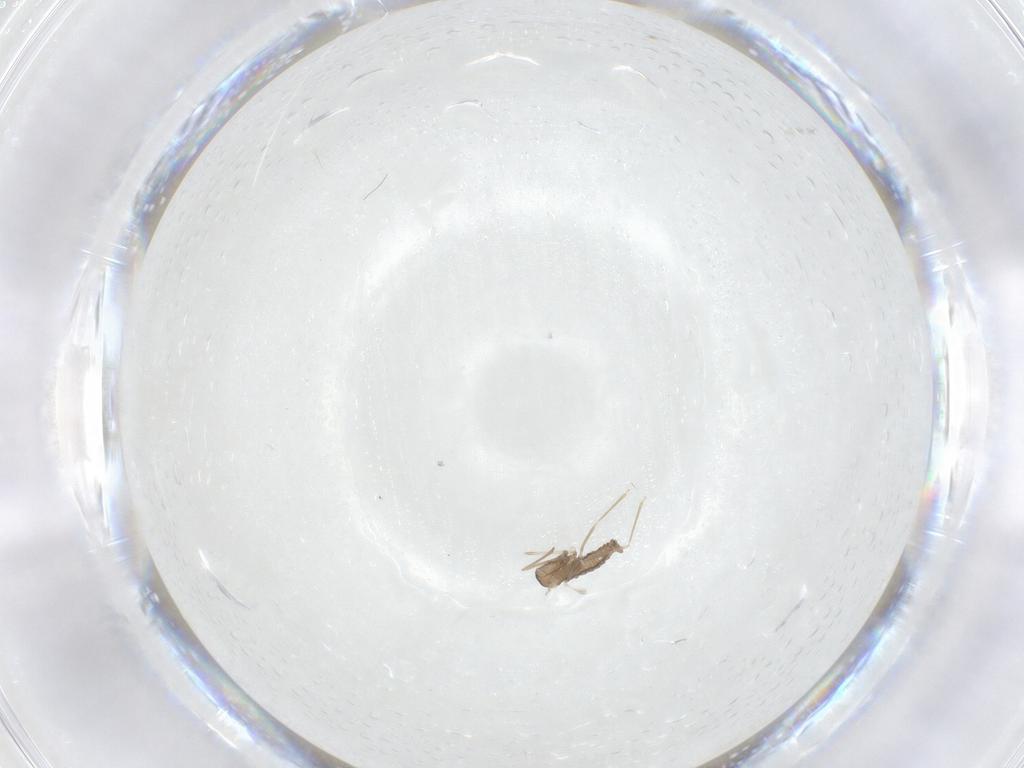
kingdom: Animalia
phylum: Arthropoda
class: Insecta
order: Diptera
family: Cecidomyiidae
